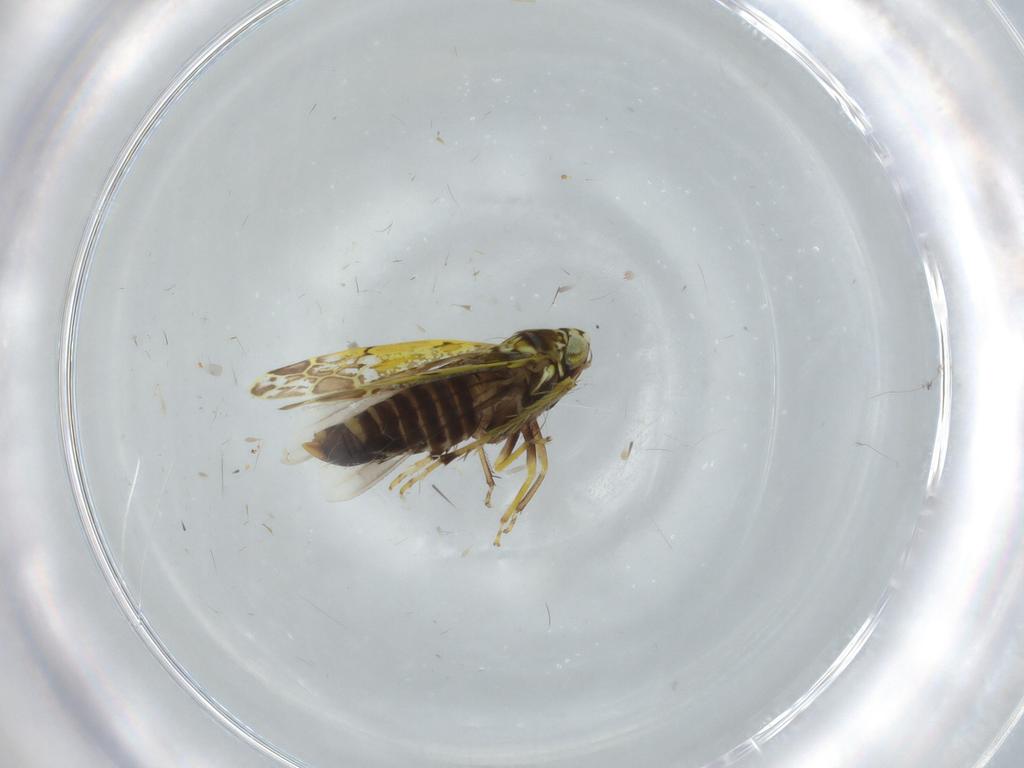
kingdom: Animalia
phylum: Arthropoda
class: Insecta
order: Hemiptera
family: Cicadellidae
